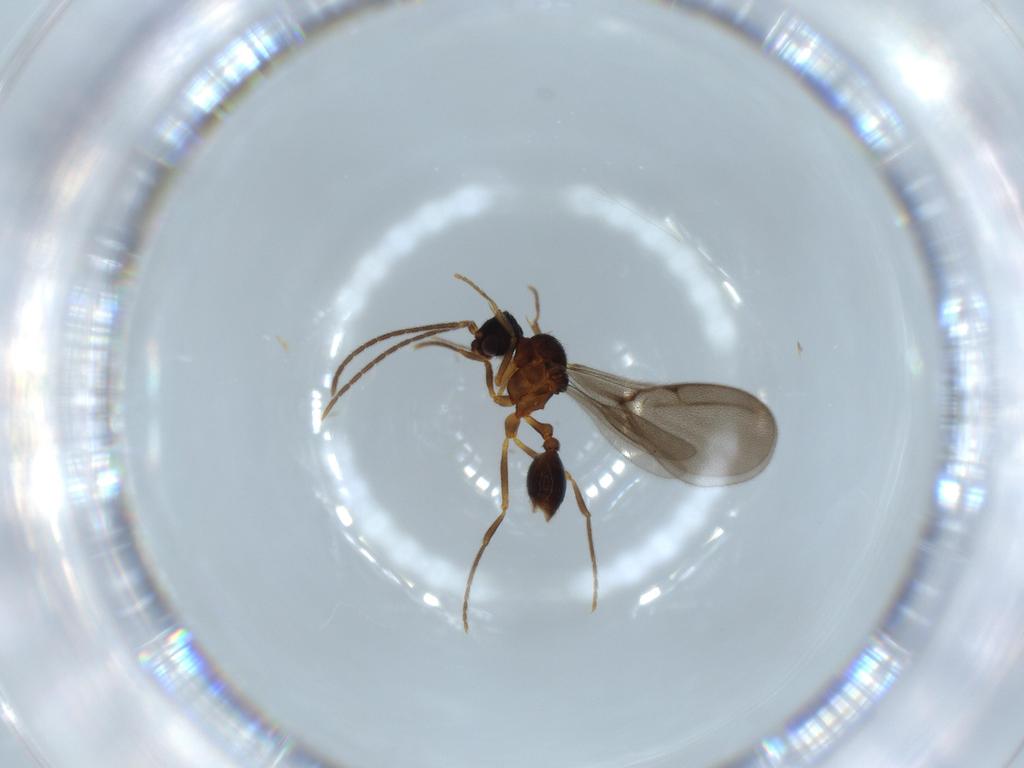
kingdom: Animalia
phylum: Arthropoda
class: Insecta
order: Hymenoptera
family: Formicidae
